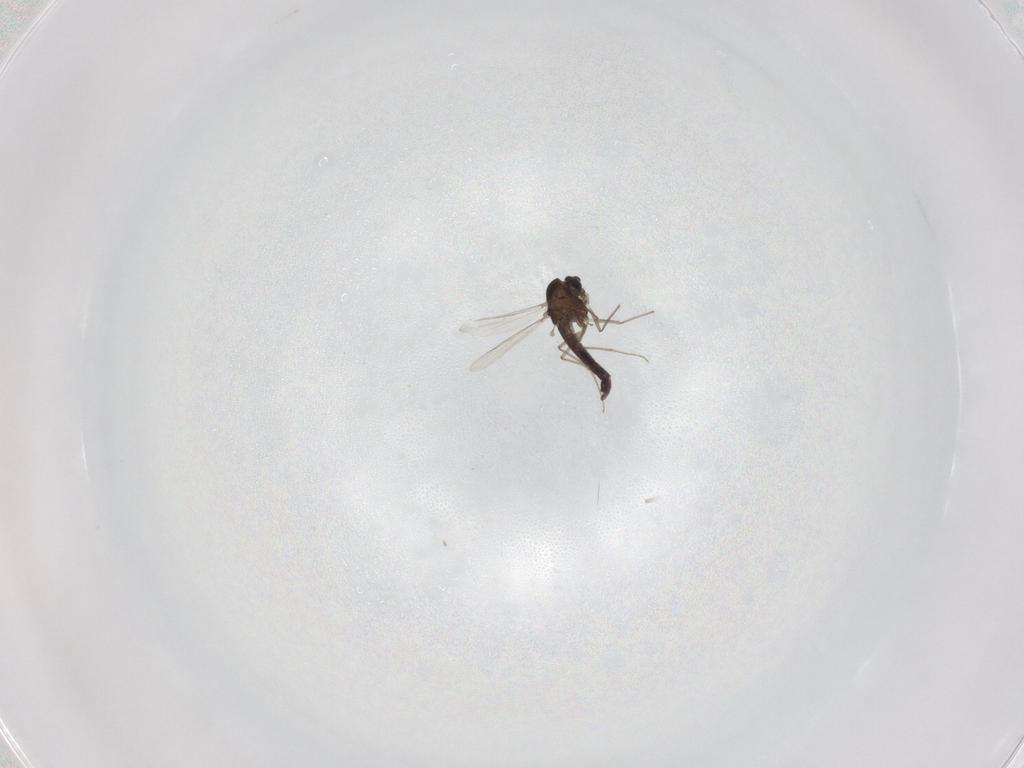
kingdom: Animalia
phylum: Arthropoda
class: Insecta
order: Diptera
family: Chironomidae
